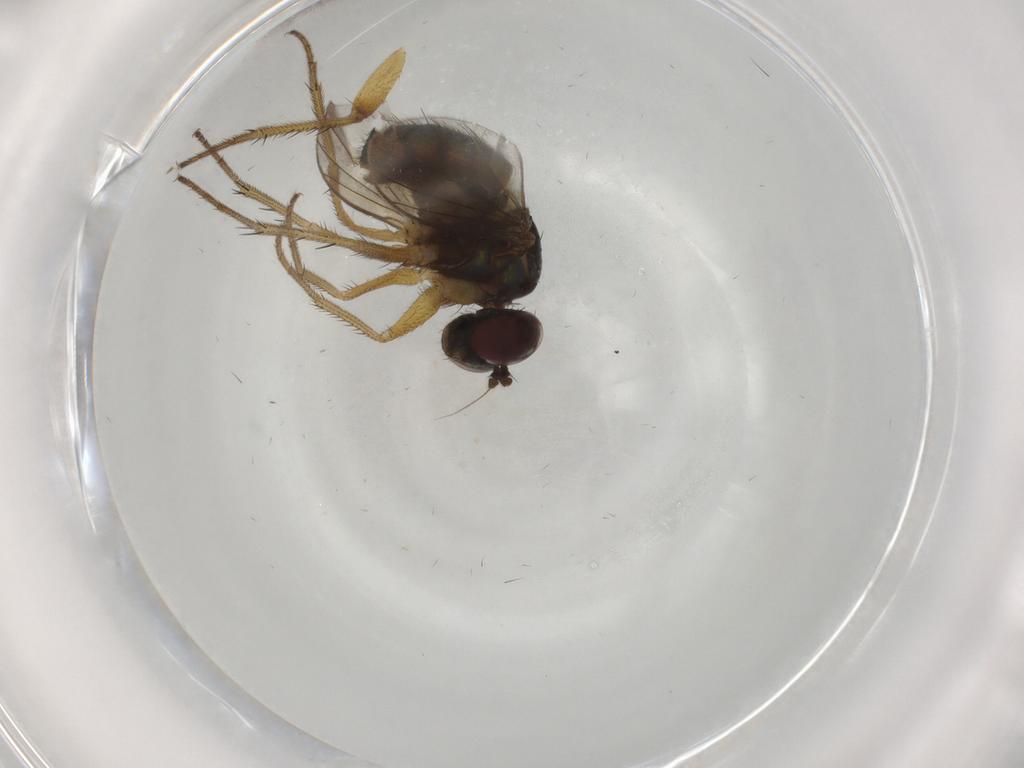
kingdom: Animalia
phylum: Arthropoda
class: Insecta
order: Diptera
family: Dolichopodidae
